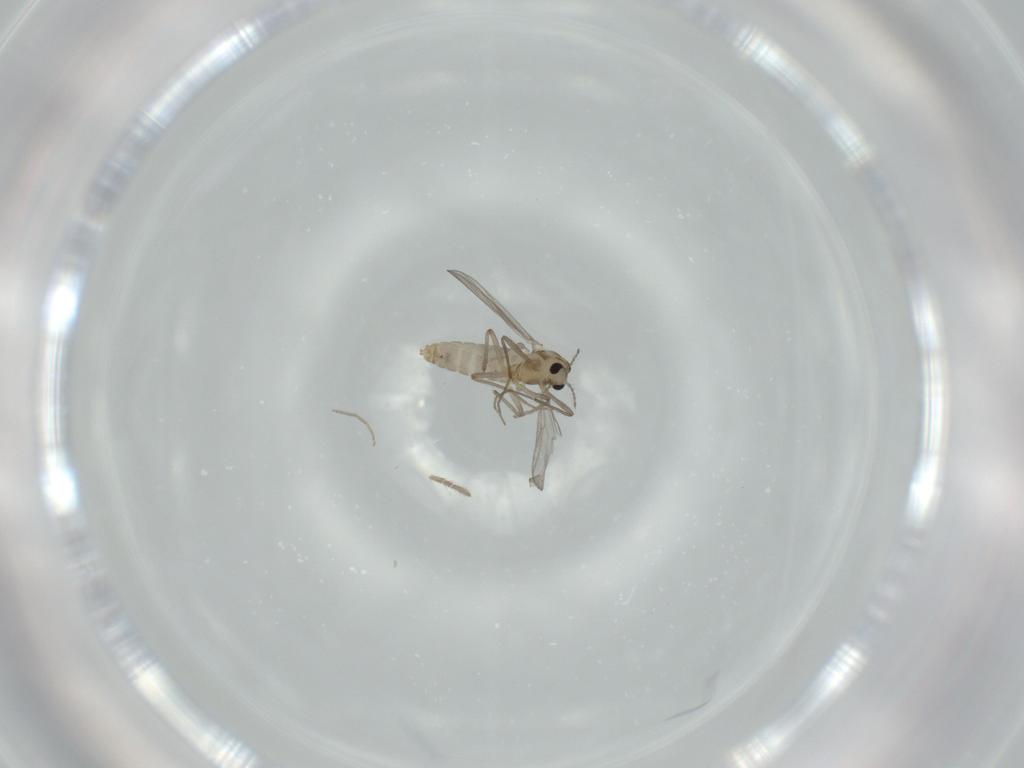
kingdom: Animalia
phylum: Arthropoda
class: Insecta
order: Diptera
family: Chironomidae
